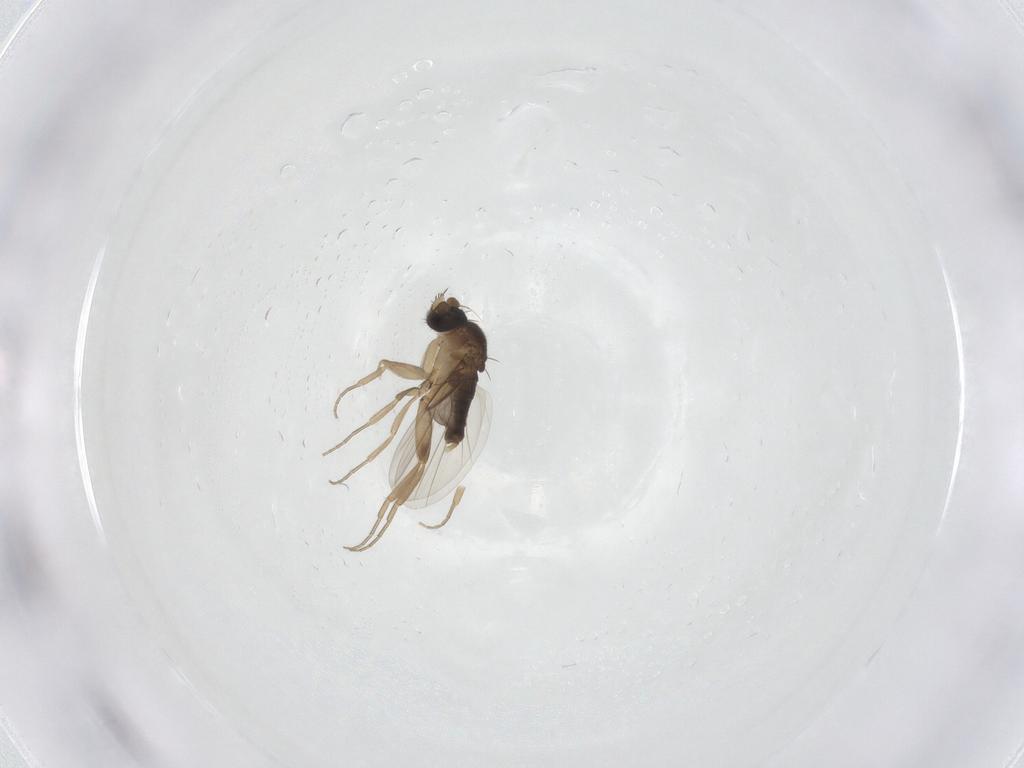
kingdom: Animalia
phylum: Arthropoda
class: Insecta
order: Diptera
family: Phoridae
